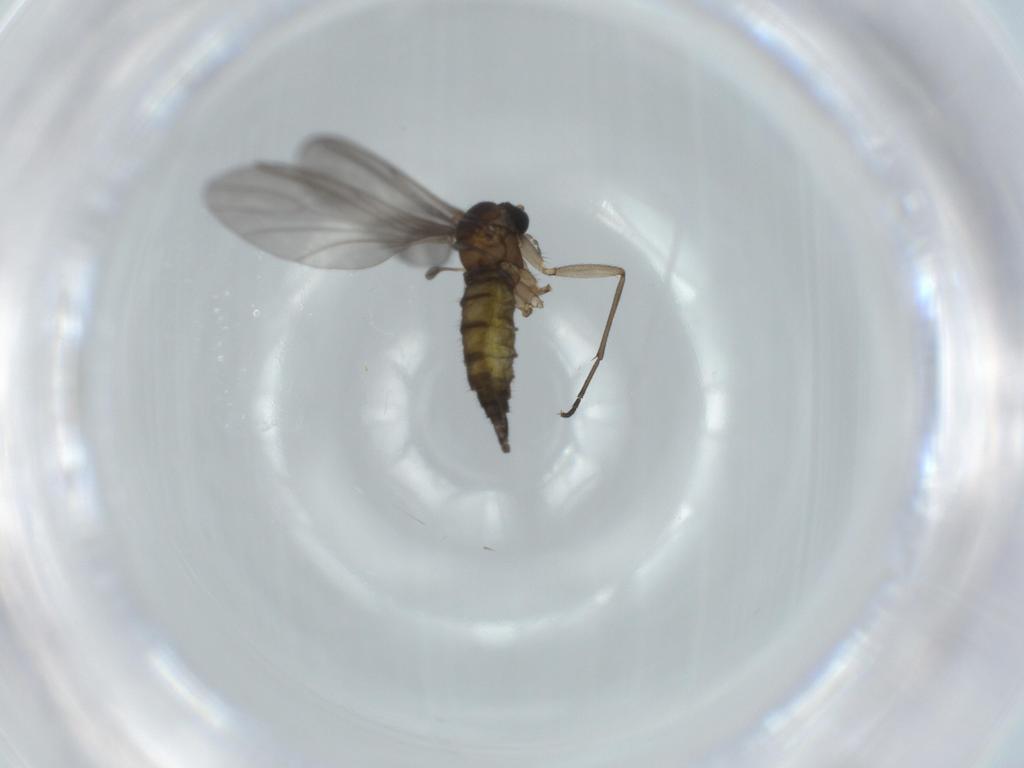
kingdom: Animalia
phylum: Arthropoda
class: Insecta
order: Diptera
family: Sciaridae
